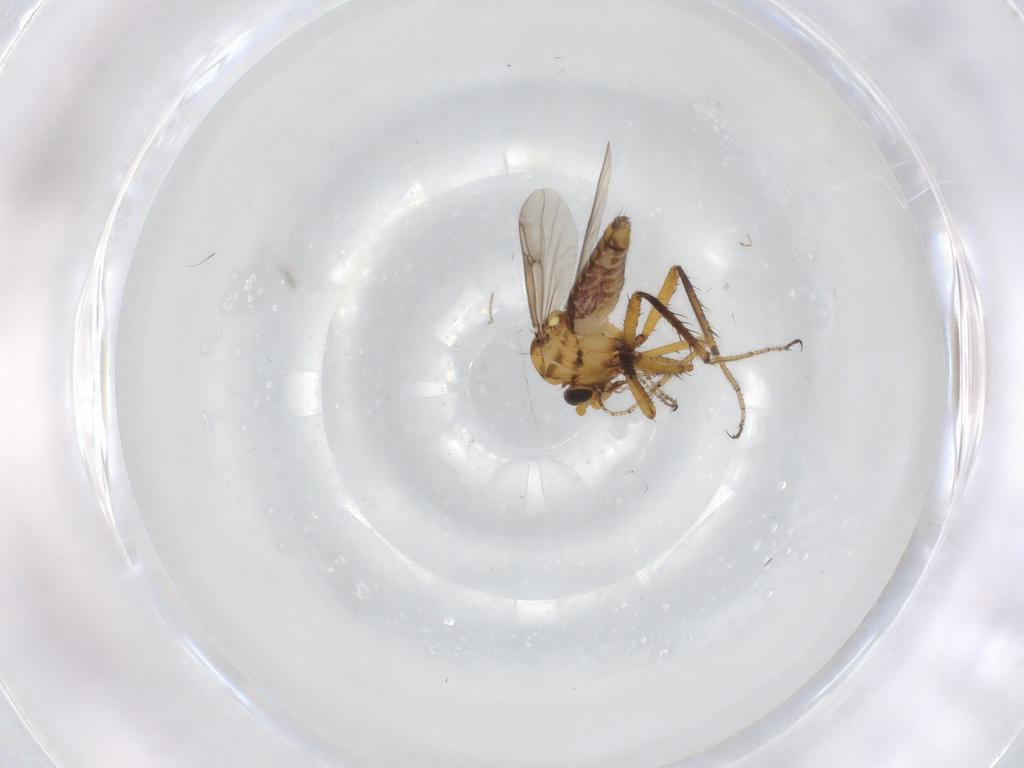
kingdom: Animalia
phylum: Arthropoda
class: Insecta
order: Diptera
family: Ceratopogonidae
